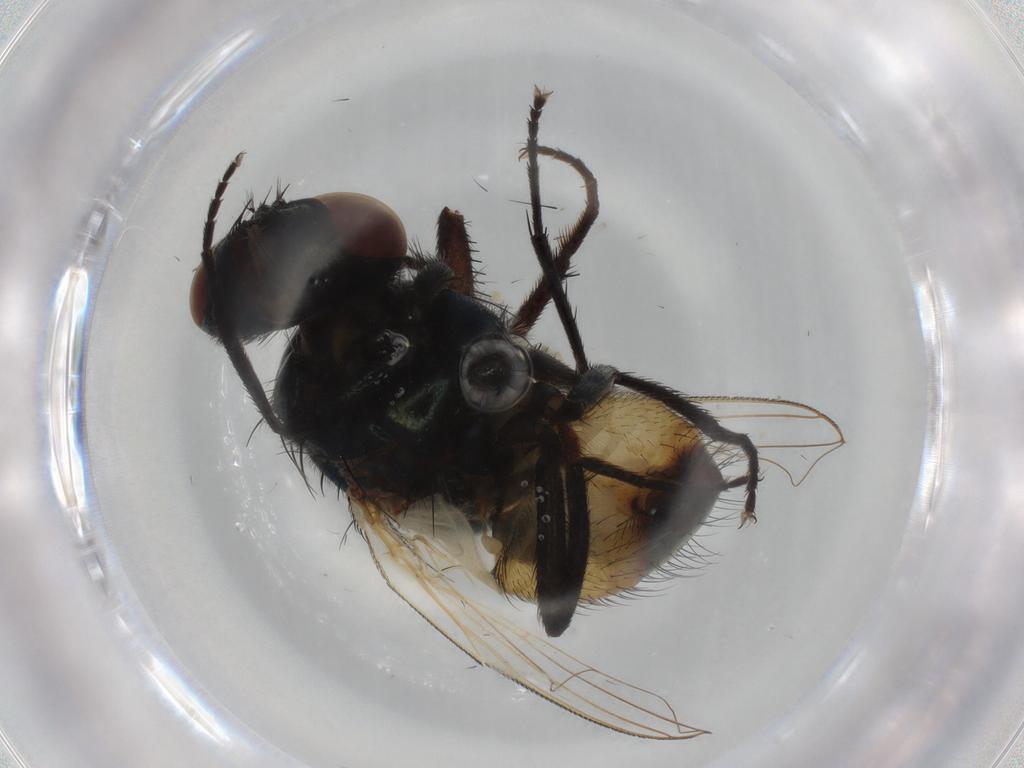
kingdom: Animalia
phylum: Arthropoda
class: Insecta
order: Diptera
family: Muscidae
